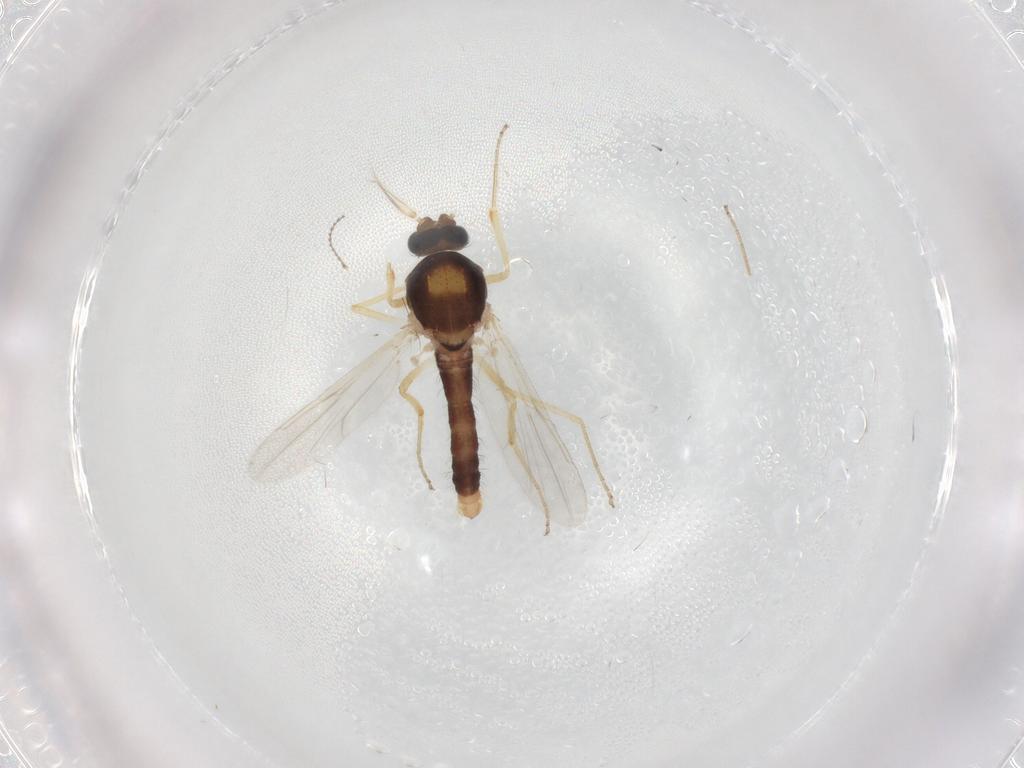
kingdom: Animalia
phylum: Arthropoda
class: Insecta
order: Diptera
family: Ceratopogonidae
